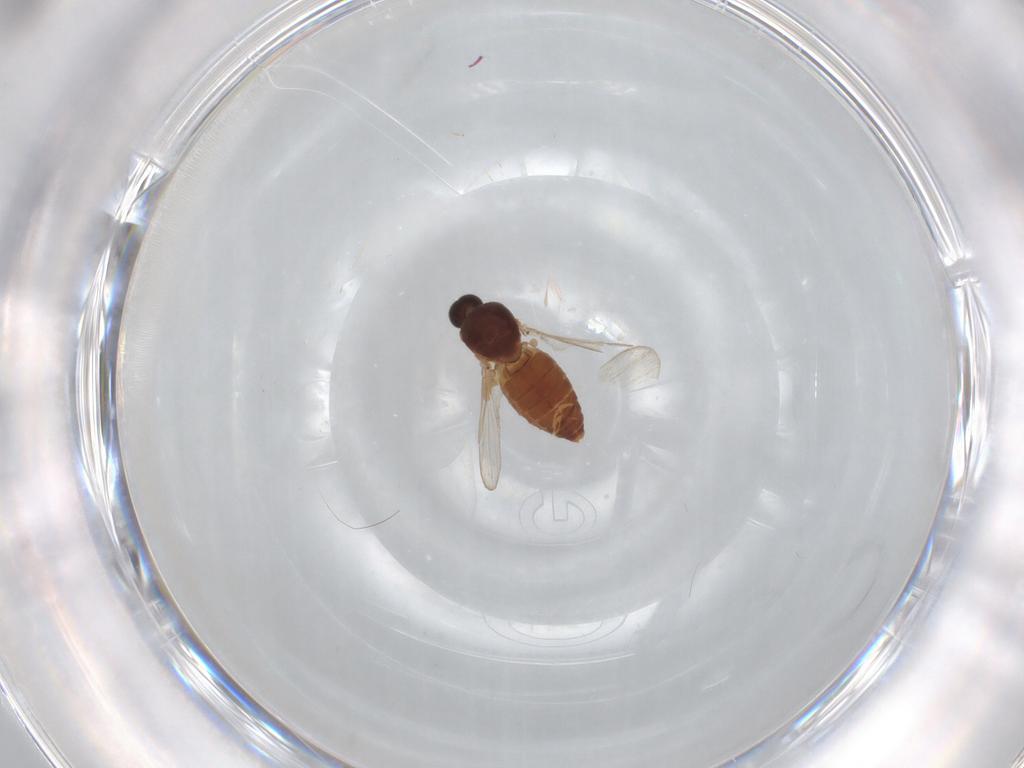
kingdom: Animalia
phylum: Arthropoda
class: Insecta
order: Diptera
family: Ceratopogonidae
